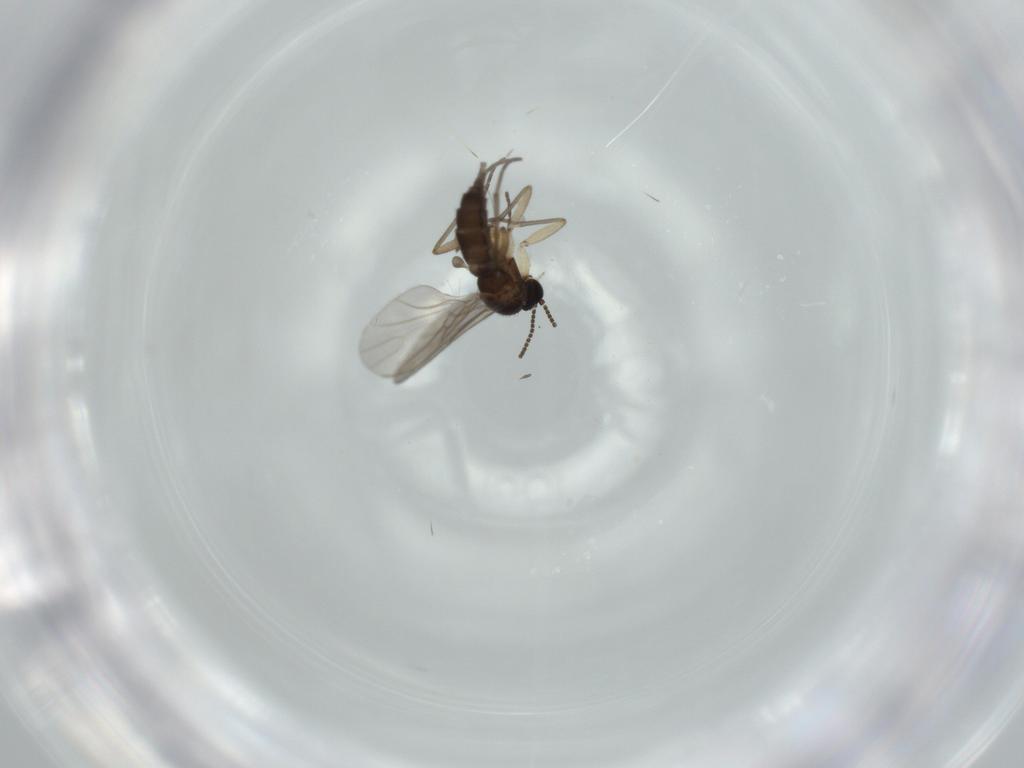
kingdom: Animalia
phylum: Arthropoda
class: Insecta
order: Diptera
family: Sciaridae
